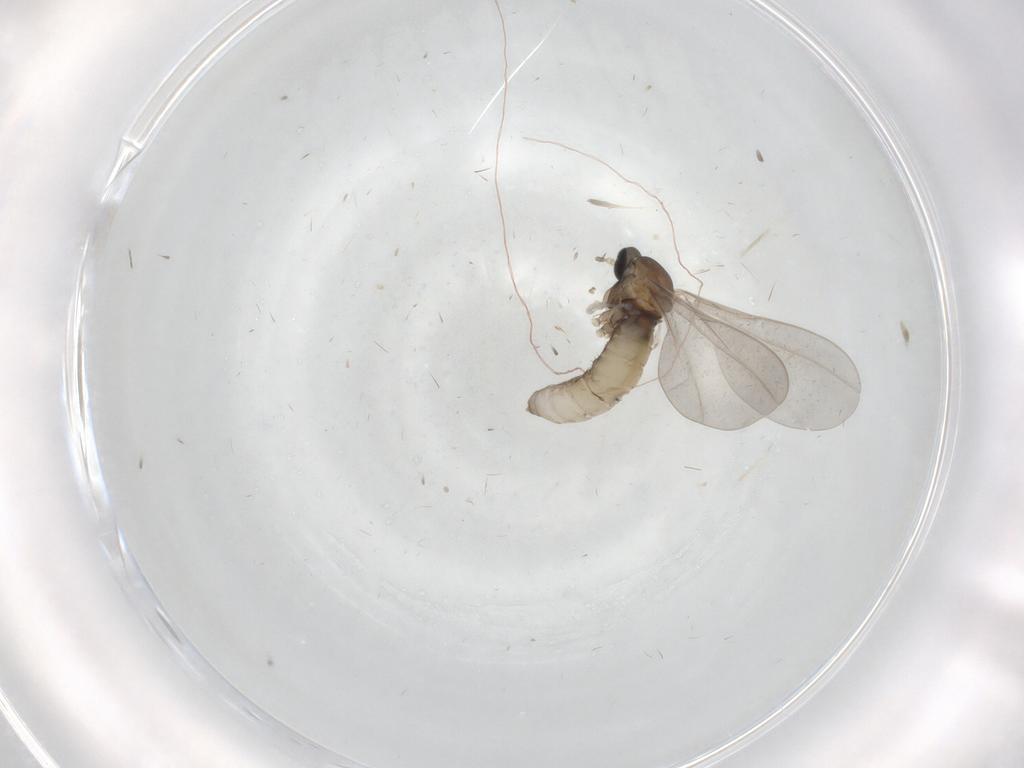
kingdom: Animalia
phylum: Arthropoda
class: Insecta
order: Diptera
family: Cecidomyiidae
